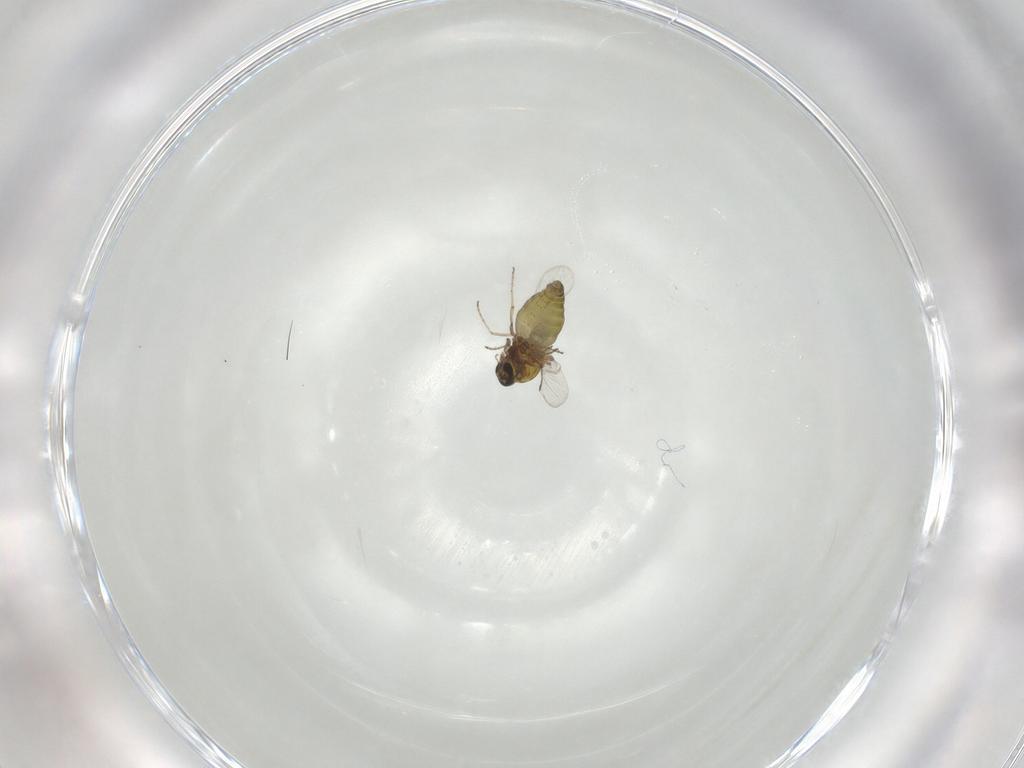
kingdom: Animalia
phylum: Arthropoda
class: Insecta
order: Diptera
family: Ceratopogonidae
